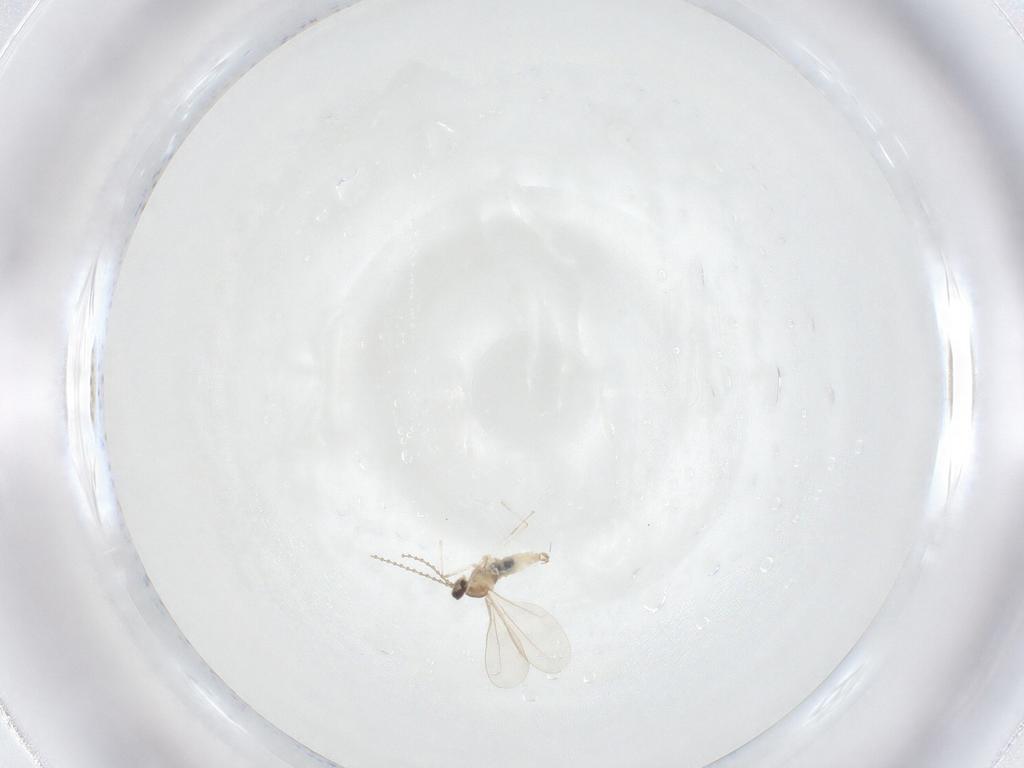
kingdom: Animalia
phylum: Arthropoda
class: Insecta
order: Diptera
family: Cecidomyiidae
